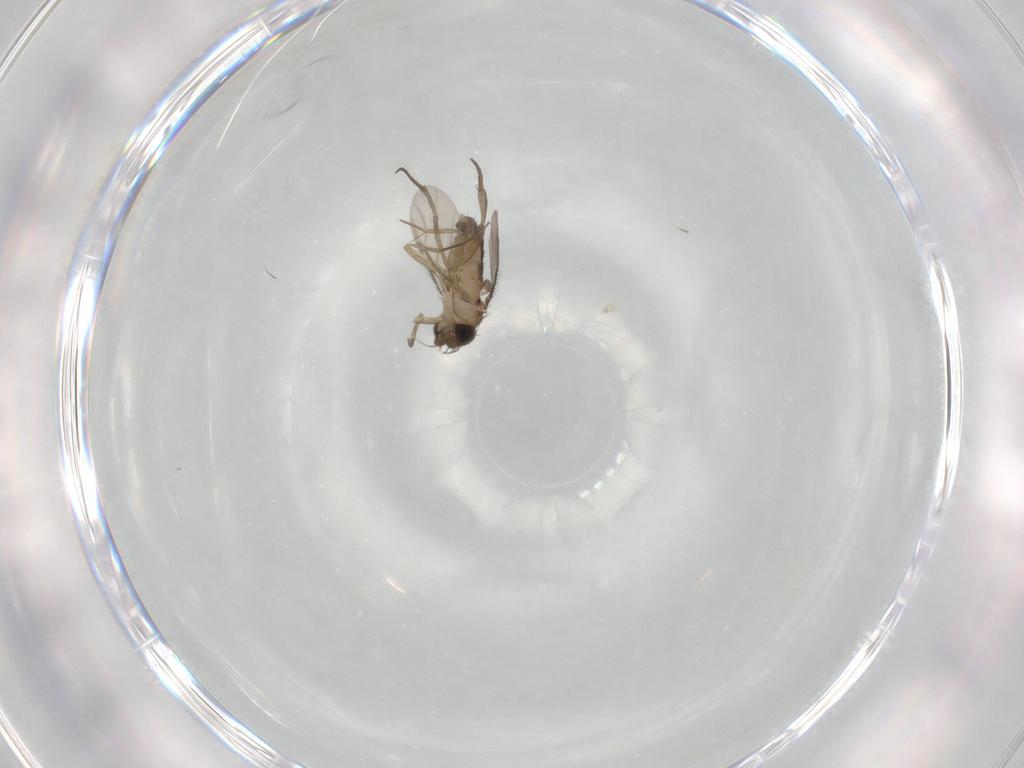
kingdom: Animalia
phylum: Arthropoda
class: Insecta
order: Diptera
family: Phoridae
